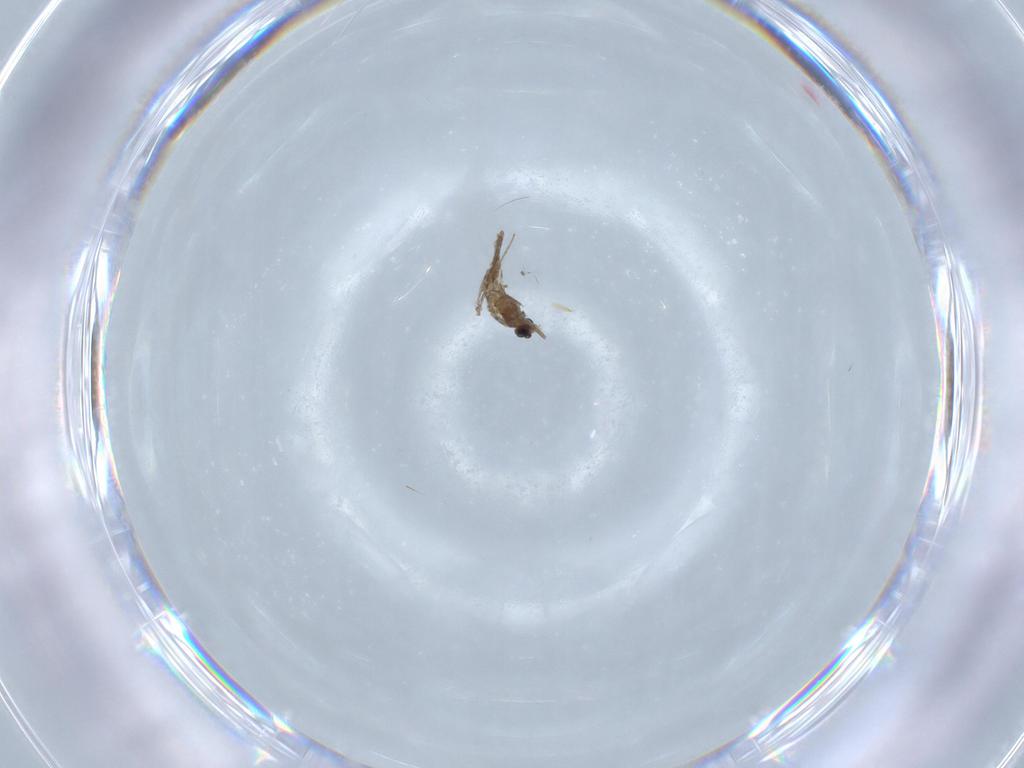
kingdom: Animalia
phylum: Arthropoda
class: Insecta
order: Diptera
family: Chironomidae
